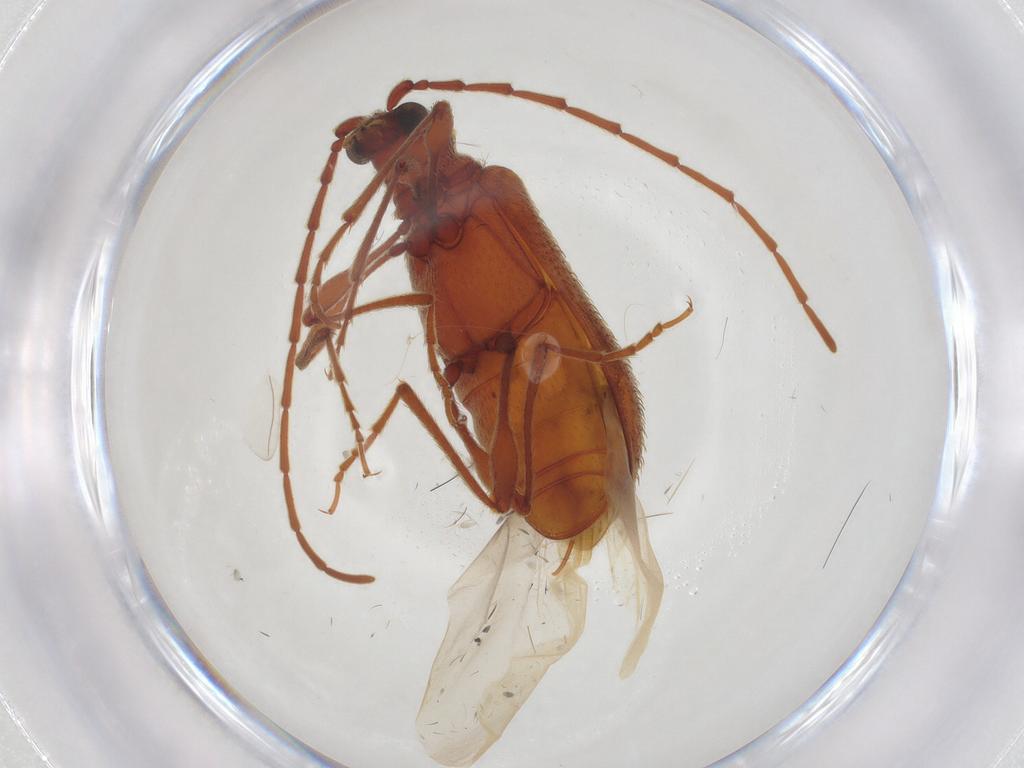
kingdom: Animalia
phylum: Arthropoda
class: Insecta
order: Coleoptera
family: Ptinidae
